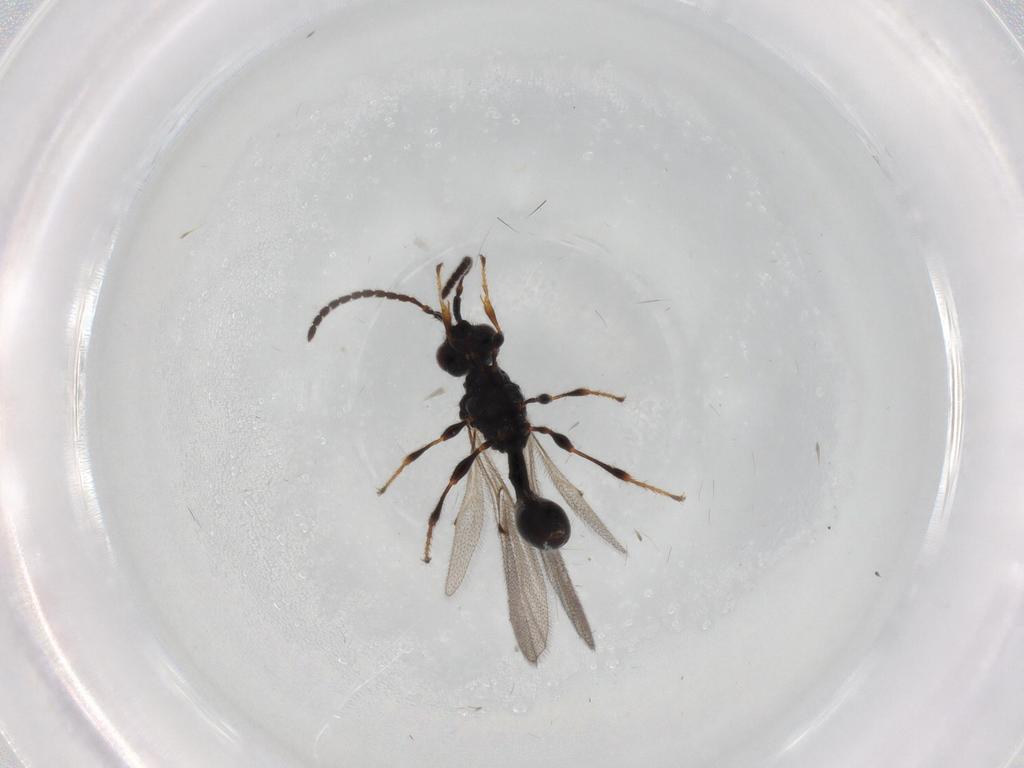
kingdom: Animalia
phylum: Arthropoda
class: Insecta
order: Hymenoptera
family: Diapriidae
